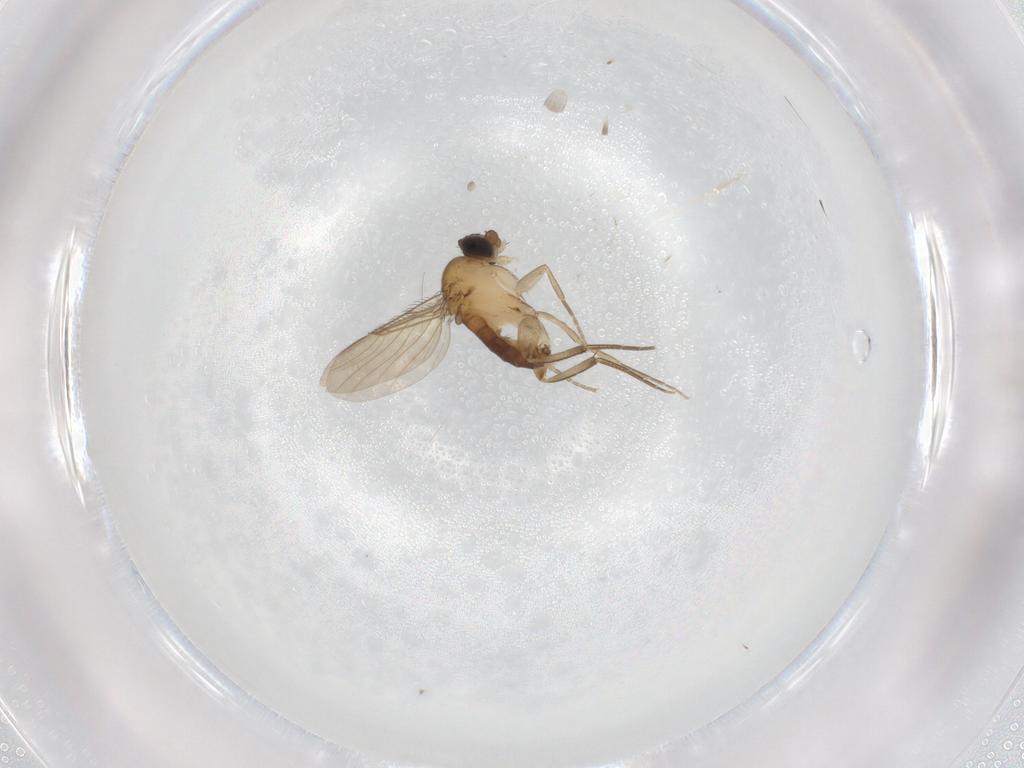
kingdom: Animalia
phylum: Arthropoda
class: Insecta
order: Diptera
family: Phoridae
